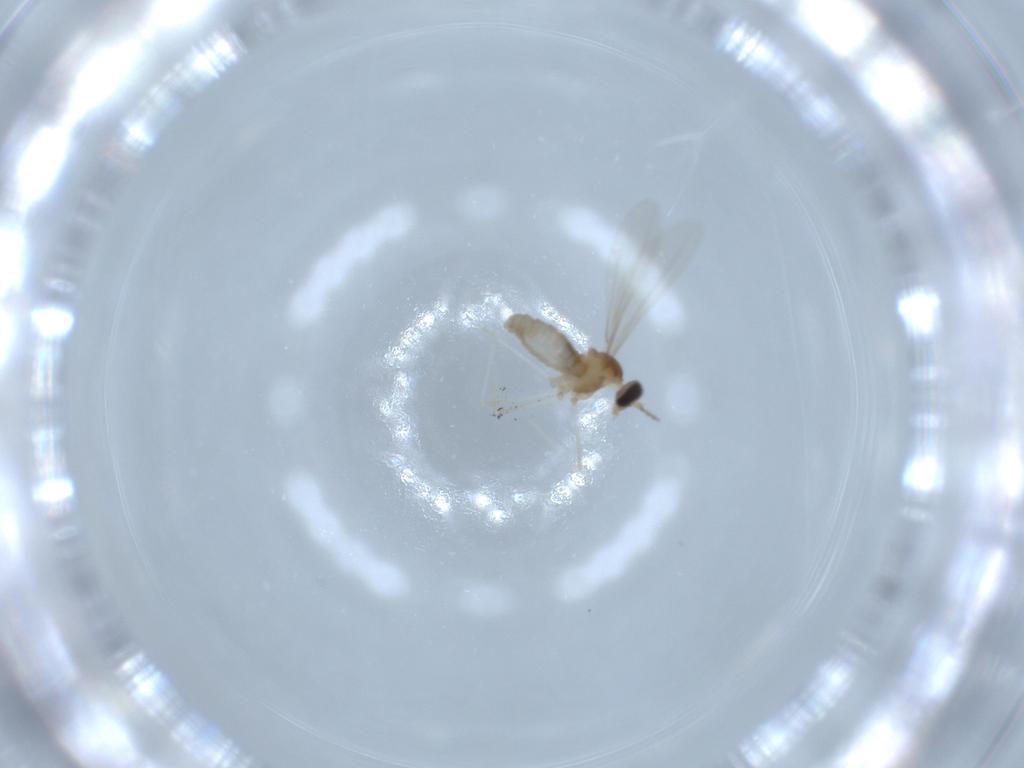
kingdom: Animalia
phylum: Arthropoda
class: Insecta
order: Diptera
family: Cecidomyiidae
